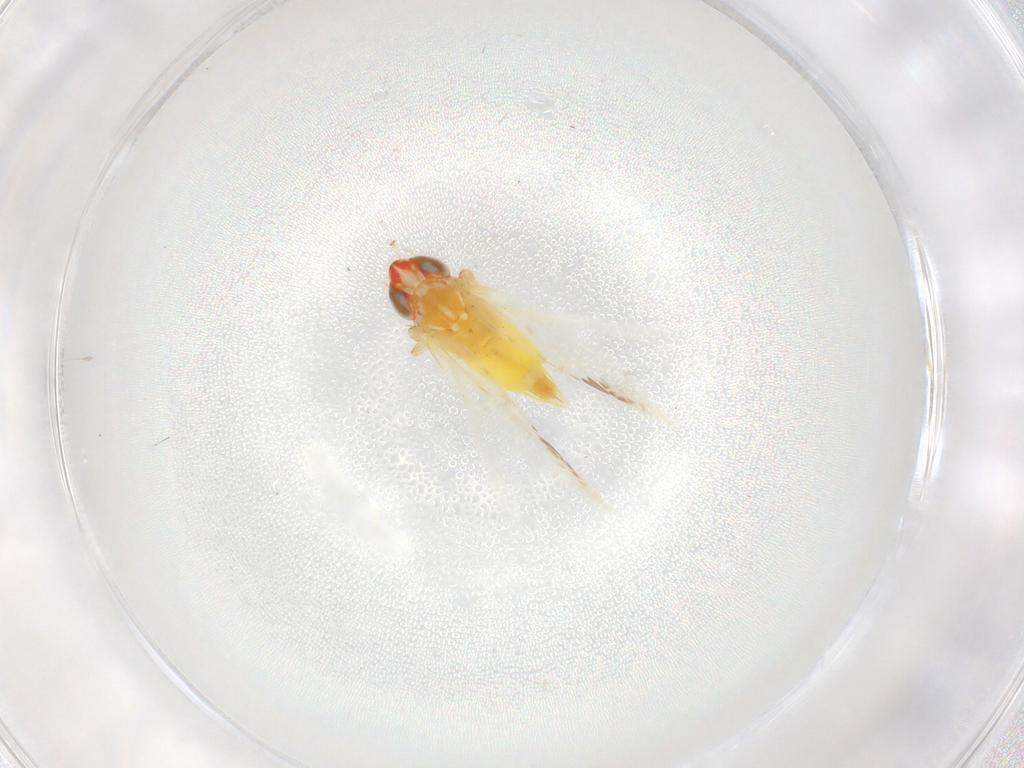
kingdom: Animalia
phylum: Arthropoda
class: Insecta
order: Hemiptera
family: Cicadellidae
